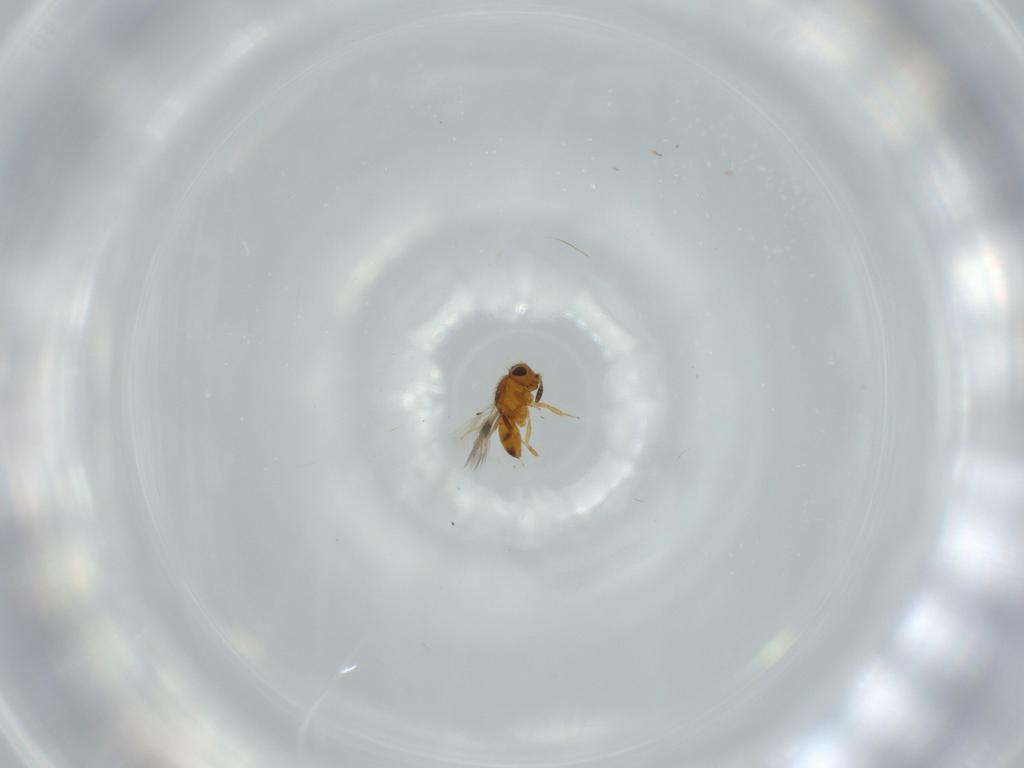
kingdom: Animalia
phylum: Arthropoda
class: Insecta
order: Hymenoptera
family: Scelionidae
